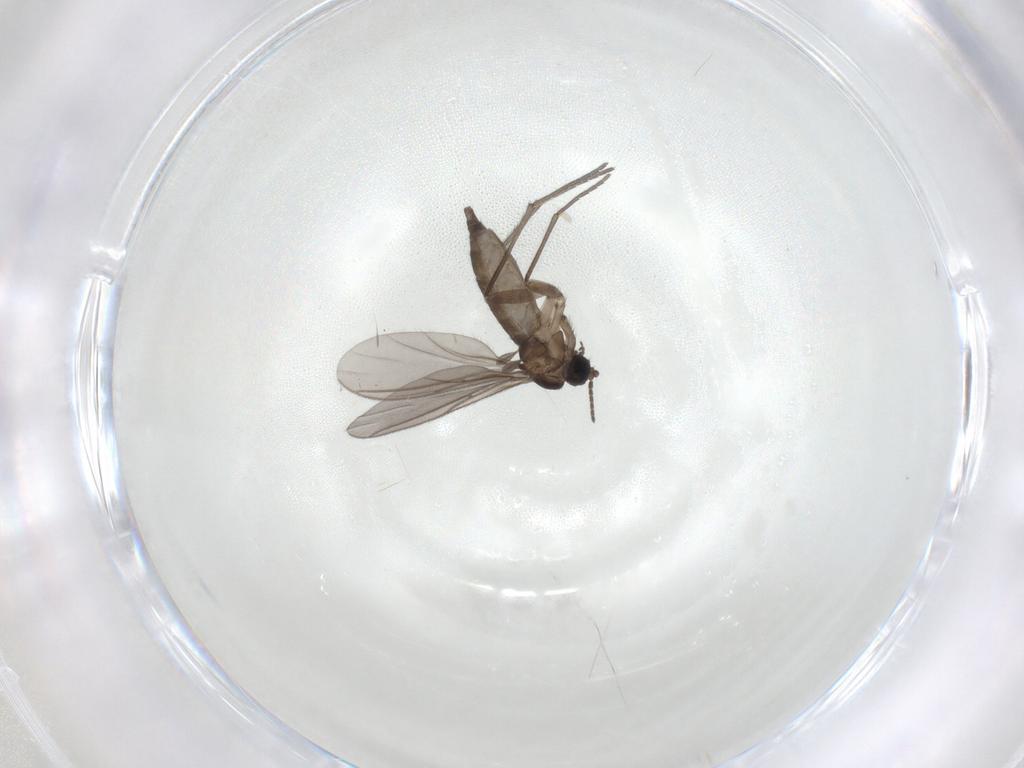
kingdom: Animalia
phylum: Arthropoda
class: Insecta
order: Diptera
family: Sciaridae
